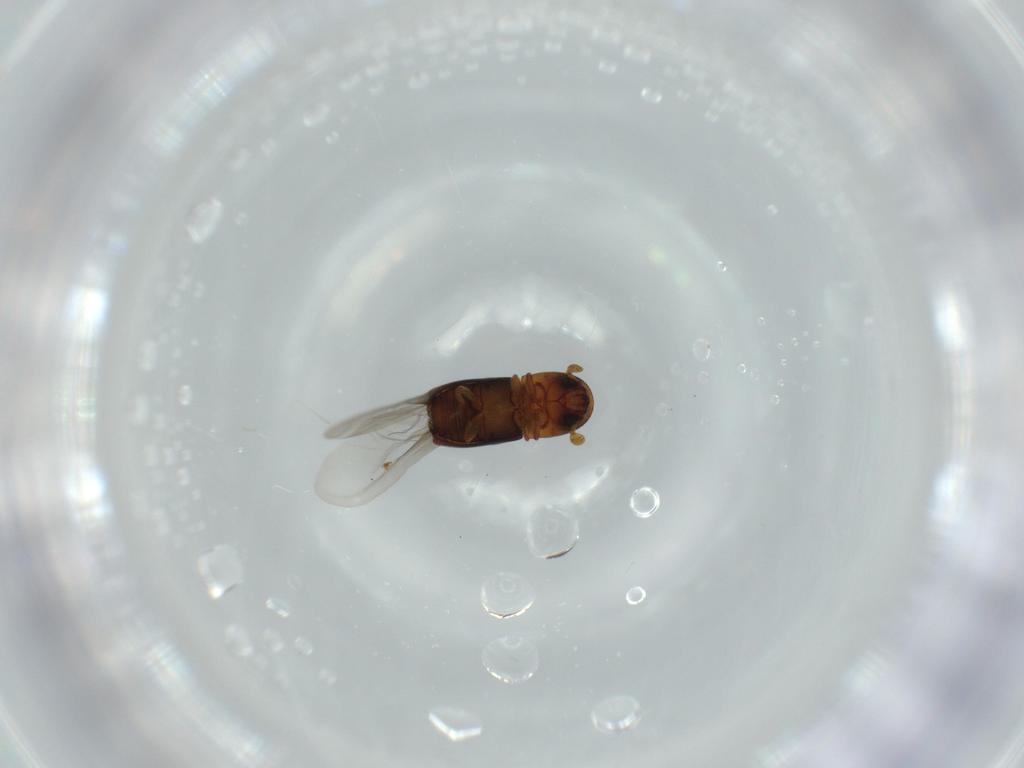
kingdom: Animalia
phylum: Arthropoda
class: Insecta
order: Coleoptera
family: Curculionidae
